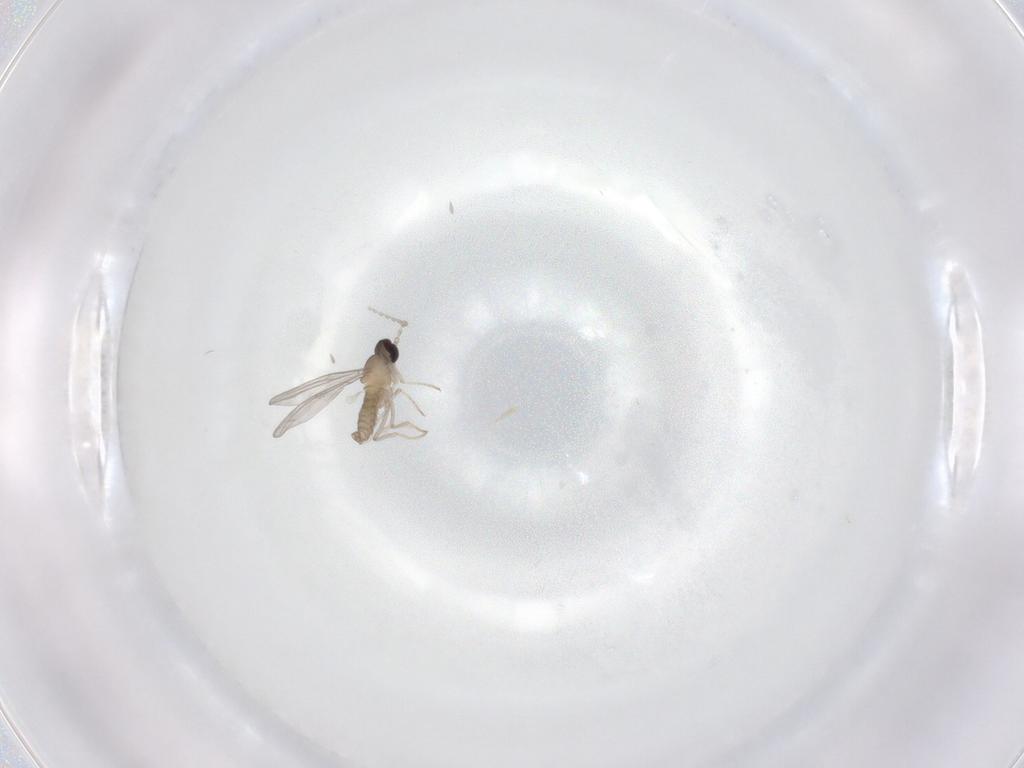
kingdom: Animalia
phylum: Arthropoda
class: Insecta
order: Diptera
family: Cecidomyiidae
